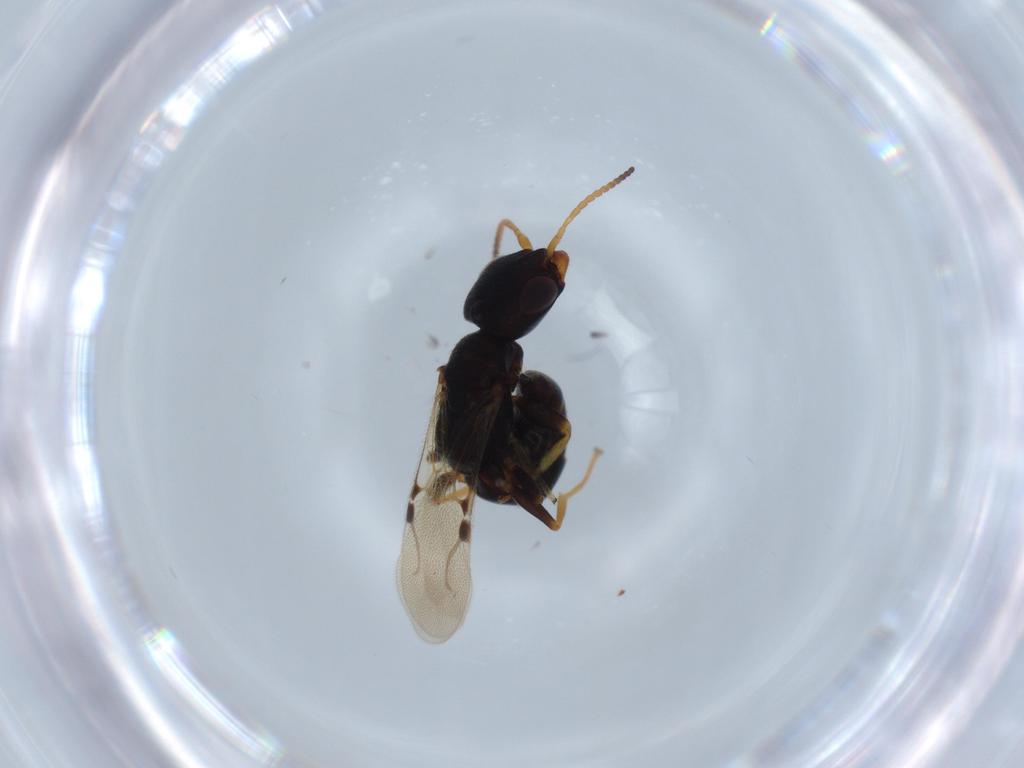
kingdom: Animalia
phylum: Arthropoda
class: Insecta
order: Hymenoptera
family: Bethylidae
